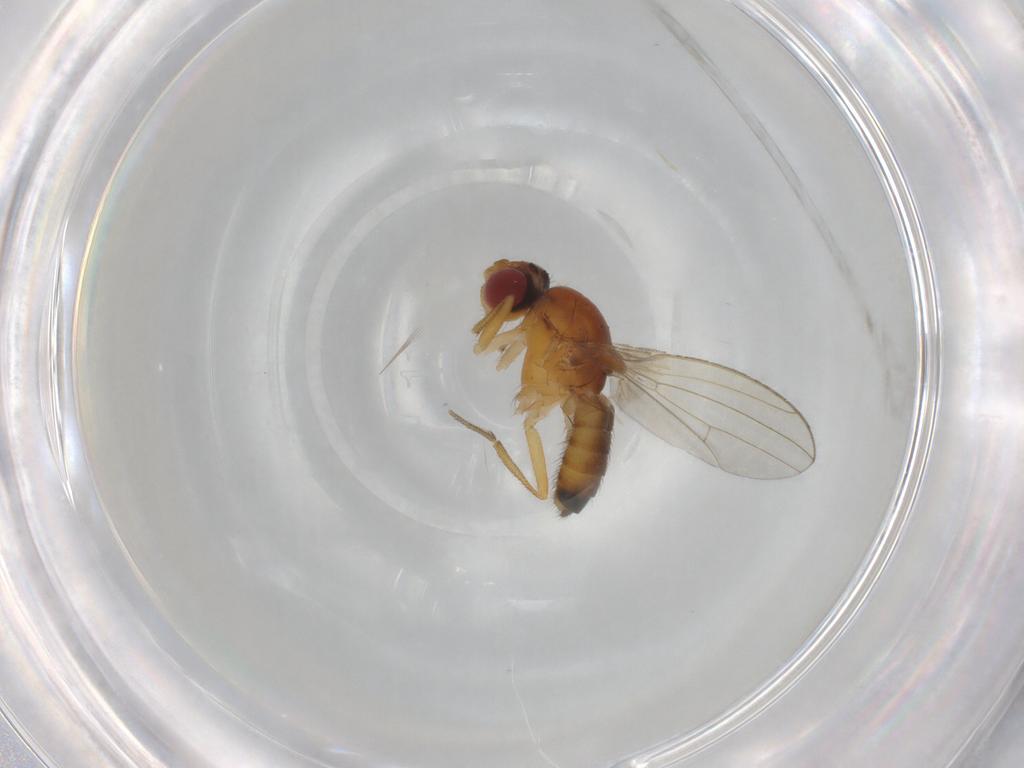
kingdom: Animalia
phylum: Arthropoda
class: Insecta
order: Diptera
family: Drosophilidae
